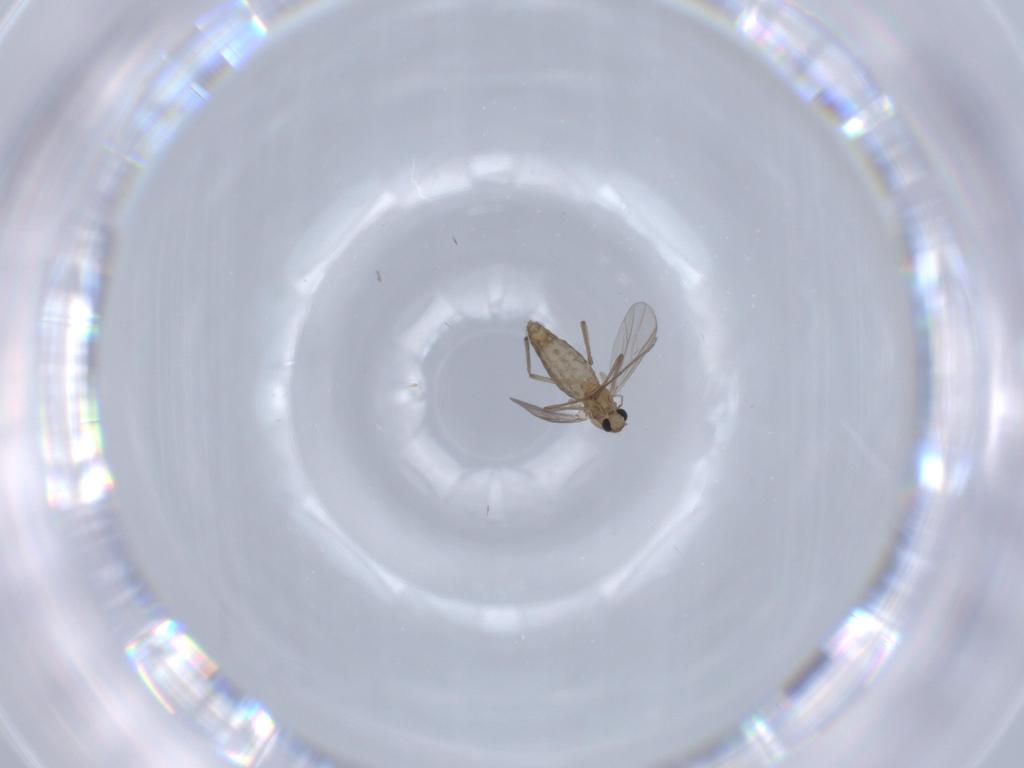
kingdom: Animalia
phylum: Arthropoda
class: Insecta
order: Diptera
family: Chironomidae
